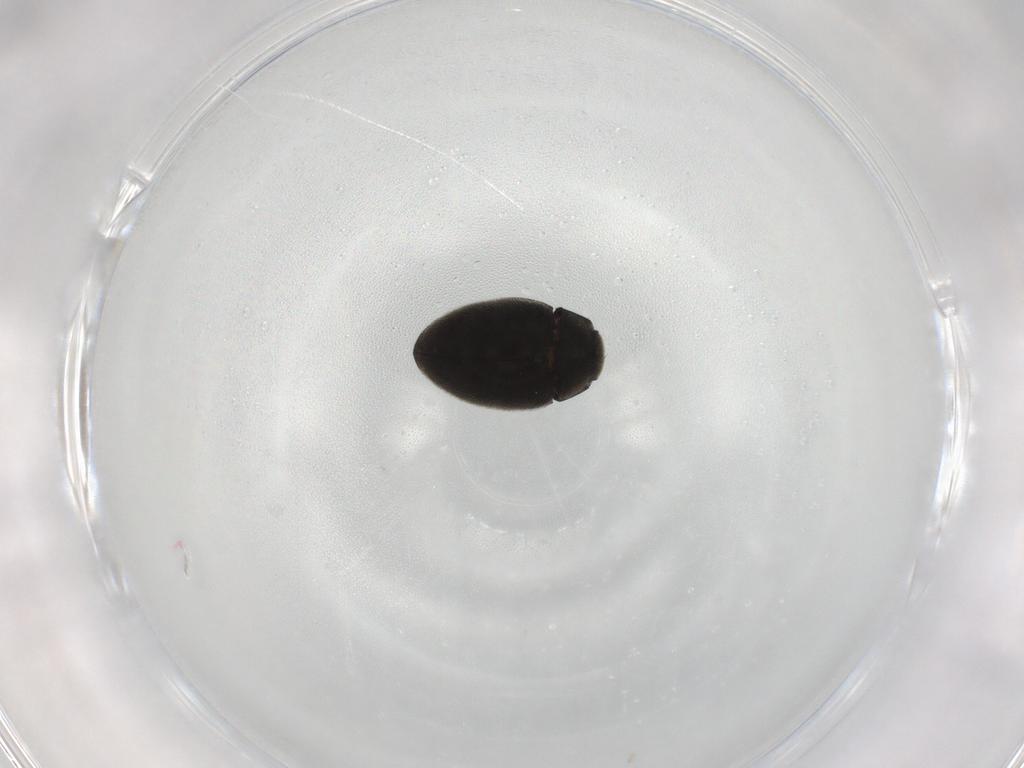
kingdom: Animalia
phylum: Arthropoda
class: Insecta
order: Coleoptera
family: Limnichidae
